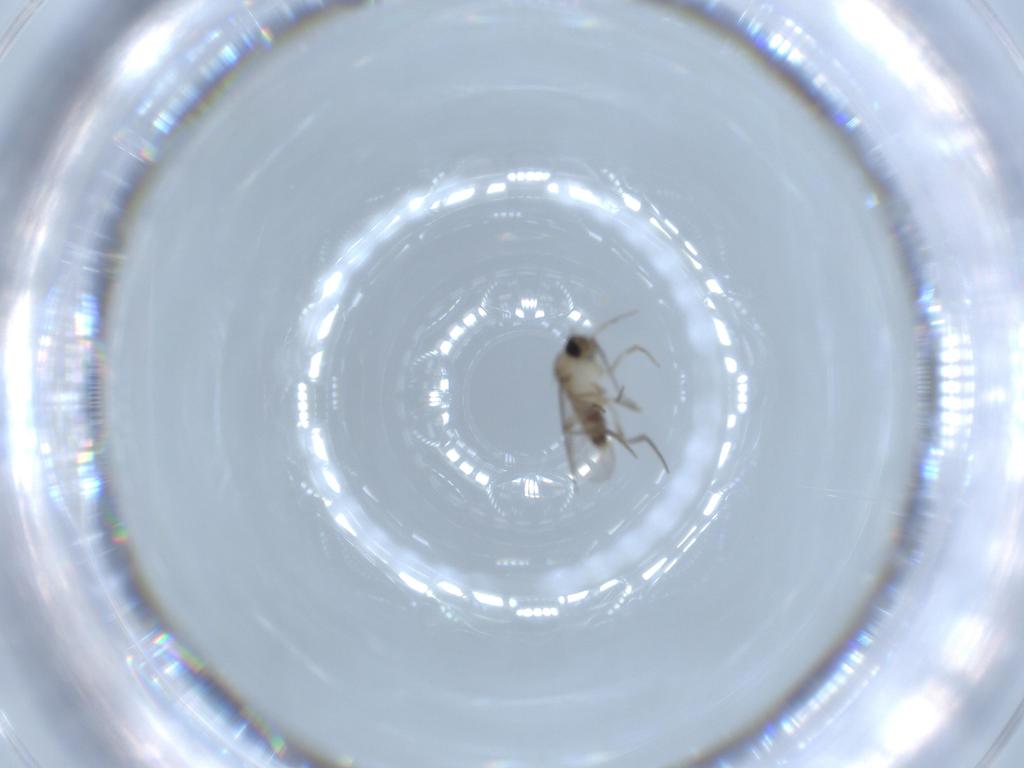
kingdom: Animalia
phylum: Arthropoda
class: Insecta
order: Diptera
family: Phoridae
